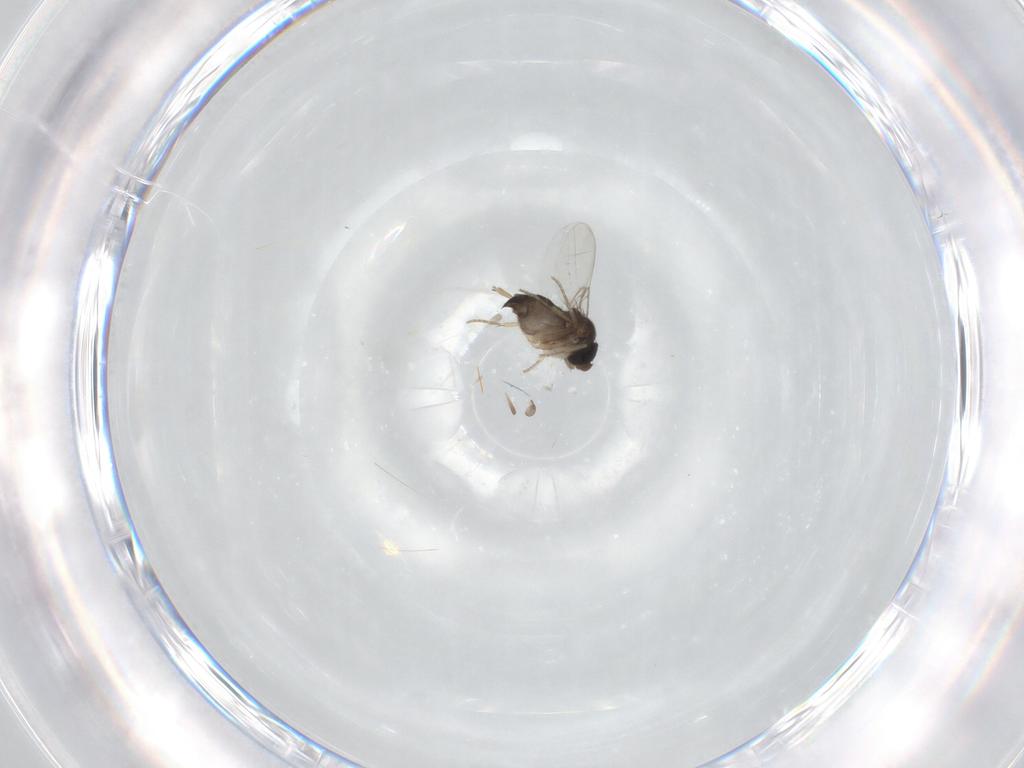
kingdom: Animalia
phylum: Arthropoda
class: Insecta
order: Diptera
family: Phoridae
